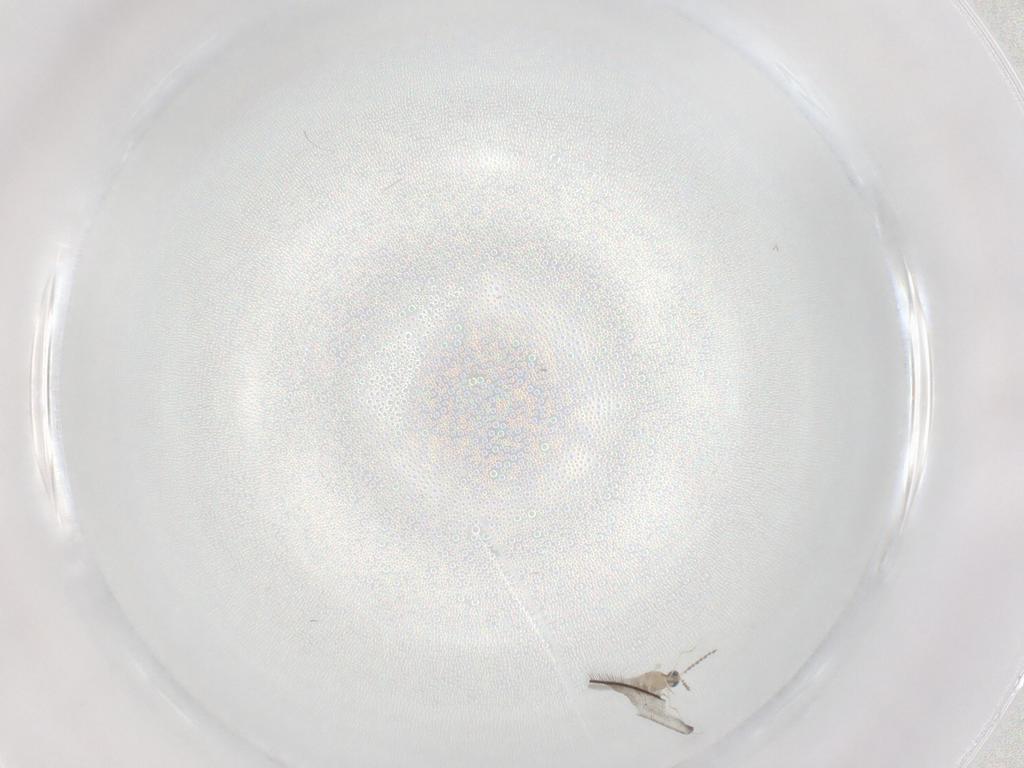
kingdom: Animalia
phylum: Arthropoda
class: Insecta
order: Diptera
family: Cecidomyiidae
